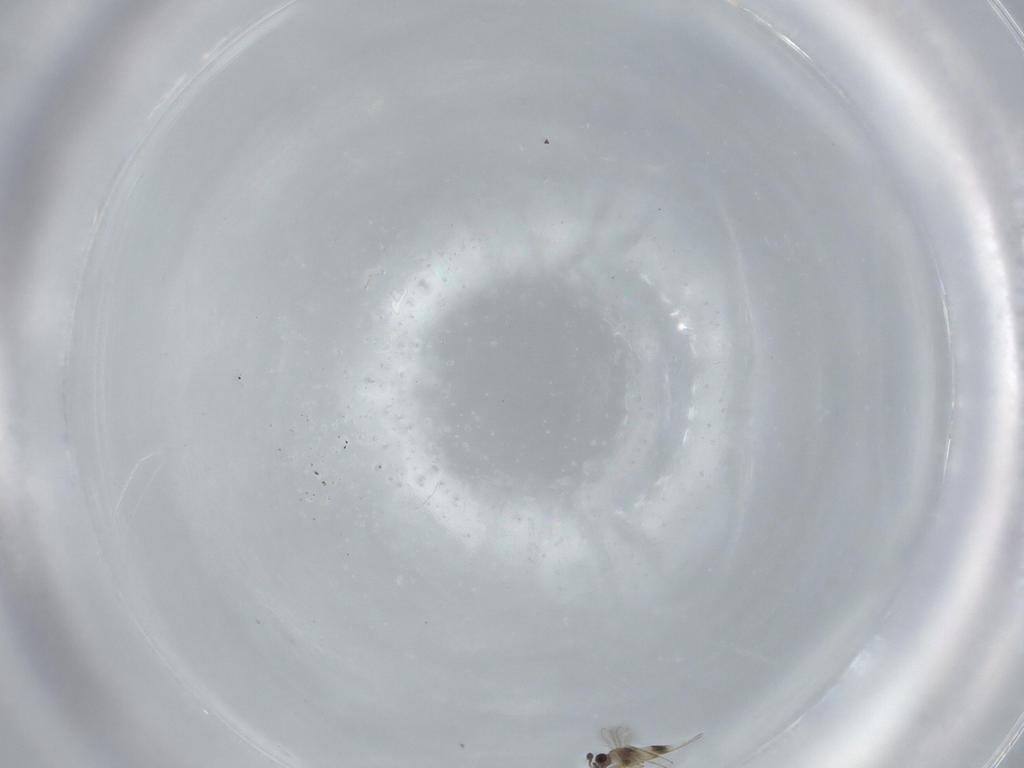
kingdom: Animalia
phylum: Arthropoda
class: Insecta
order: Hymenoptera
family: Mymaridae
